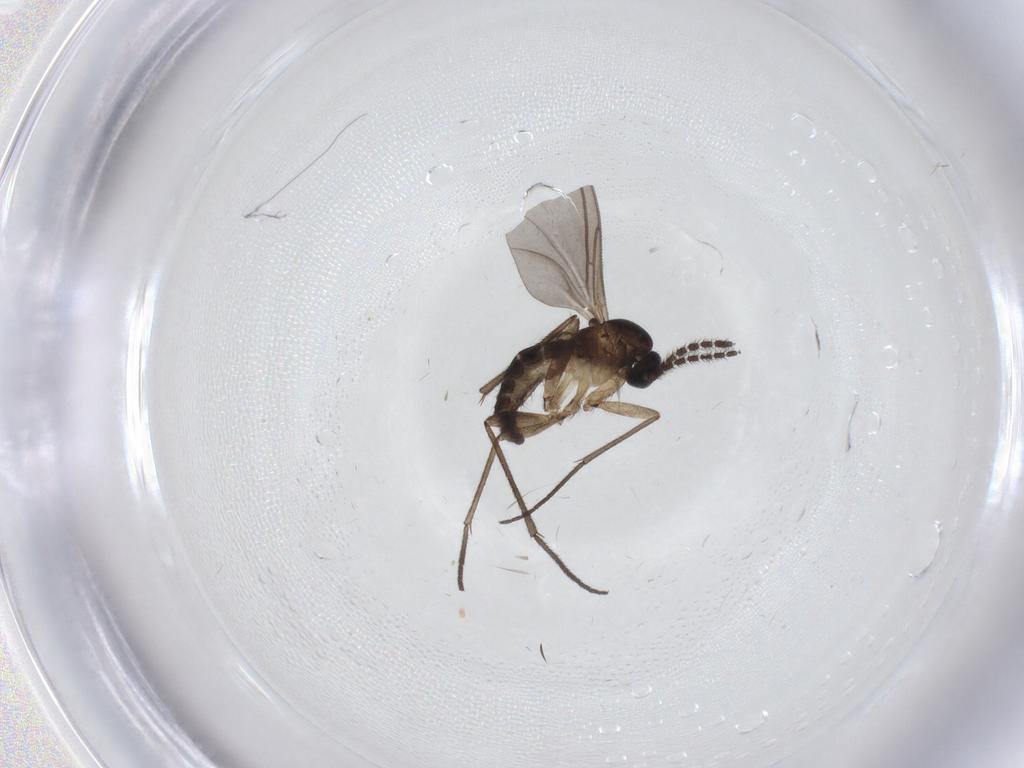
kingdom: Animalia
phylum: Arthropoda
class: Insecta
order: Diptera
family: Sciaridae
